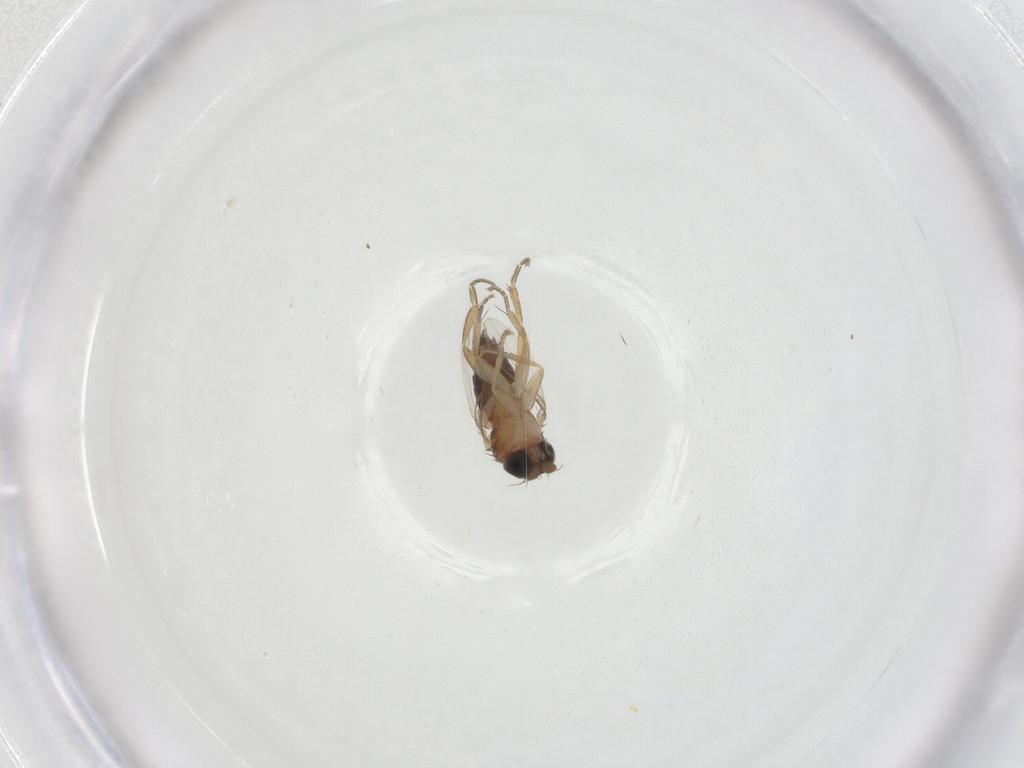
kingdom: Animalia
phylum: Arthropoda
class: Insecta
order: Diptera
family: Phoridae
